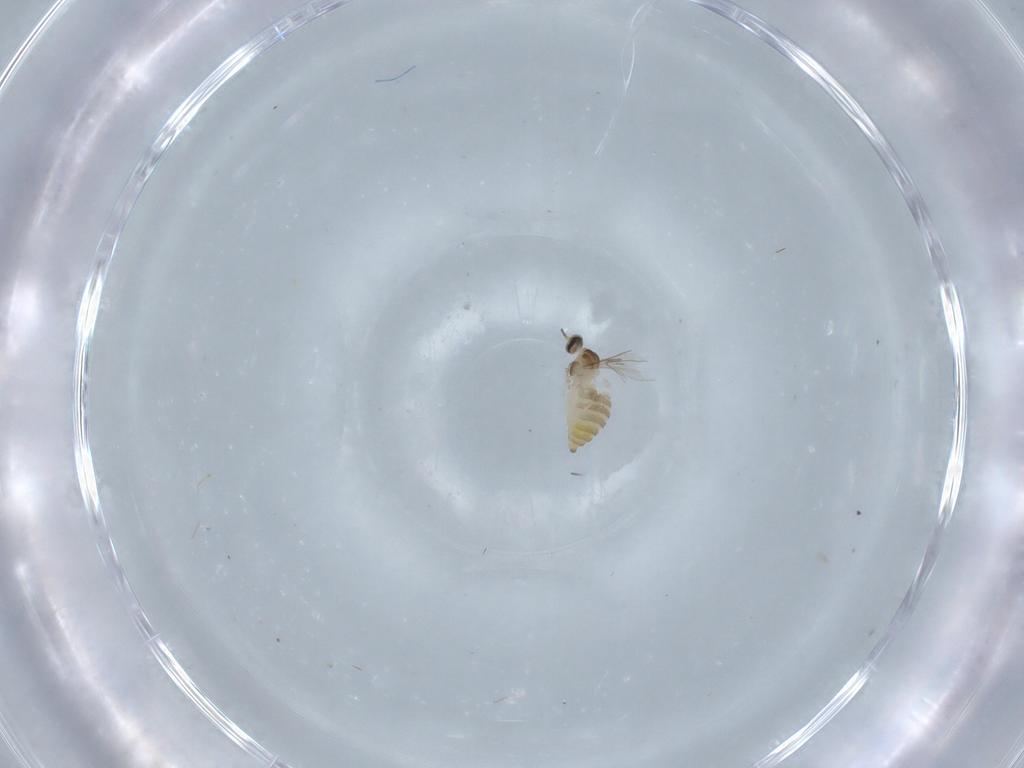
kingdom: Animalia
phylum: Arthropoda
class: Insecta
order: Diptera
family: Cecidomyiidae
